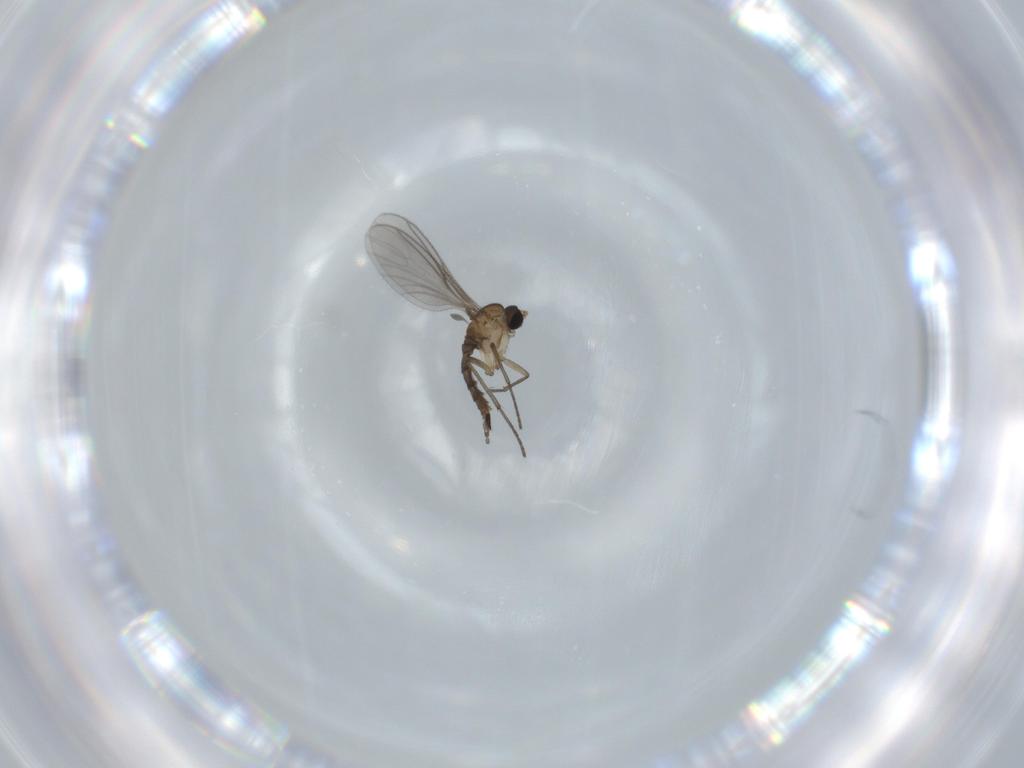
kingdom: Animalia
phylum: Arthropoda
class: Insecta
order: Diptera
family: Sciaridae
